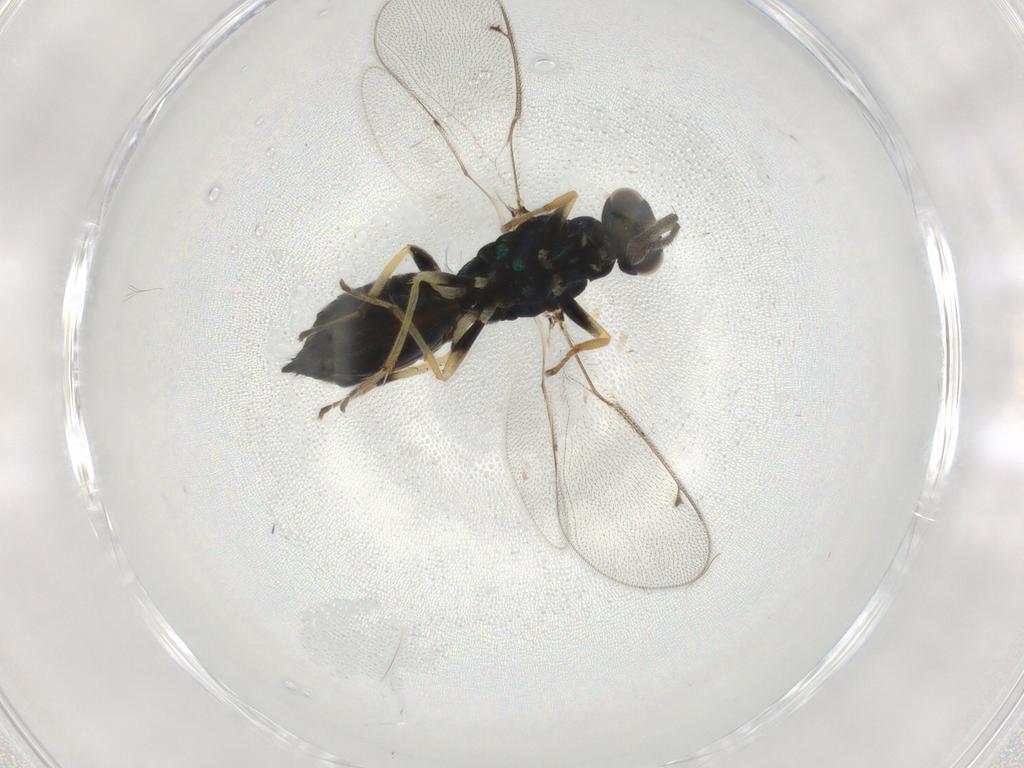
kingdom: Animalia
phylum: Arthropoda
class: Insecta
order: Hymenoptera
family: Eulophidae
